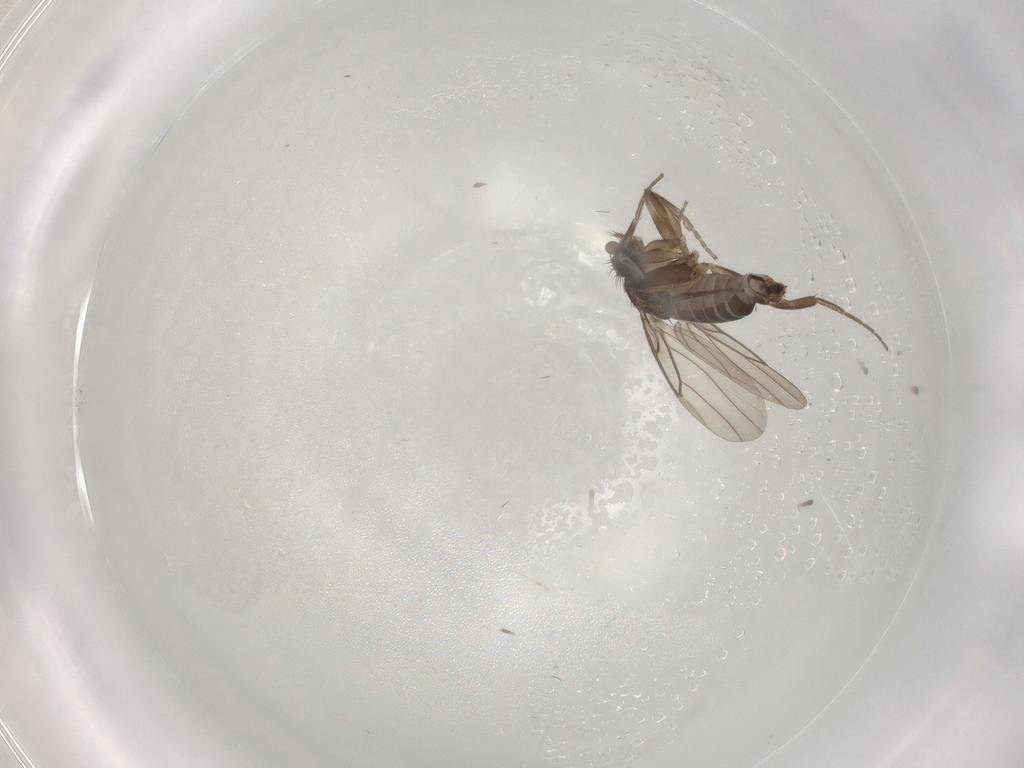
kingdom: Animalia
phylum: Arthropoda
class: Insecta
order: Diptera
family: Phoridae
